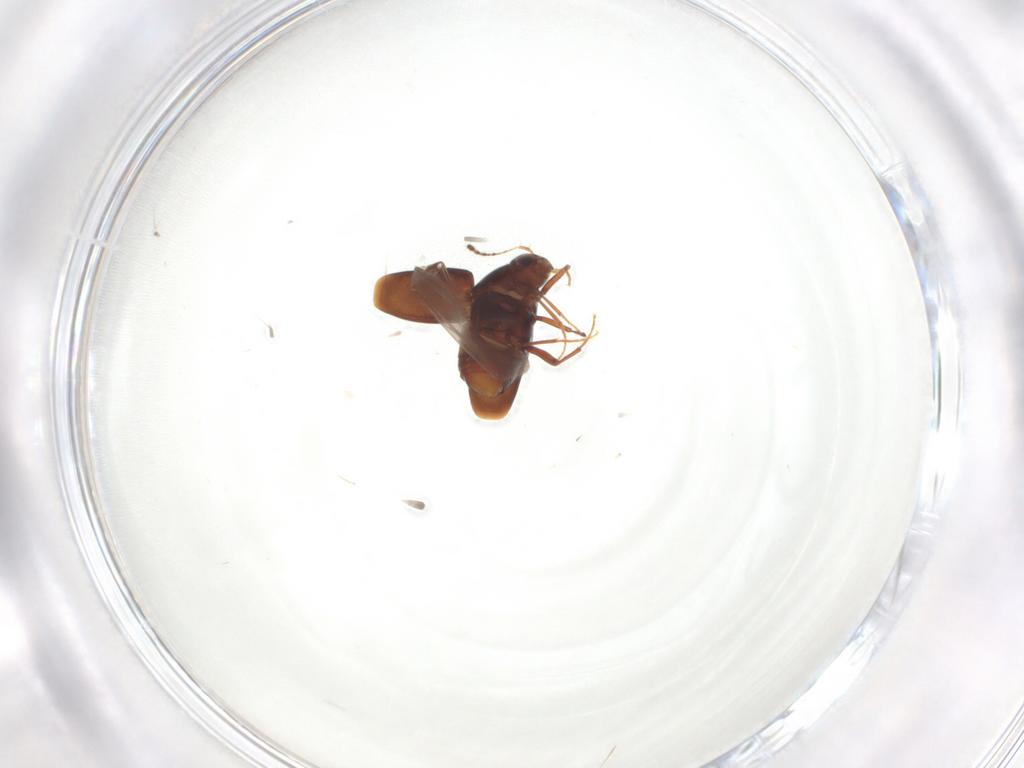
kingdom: Animalia
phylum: Arthropoda
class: Insecta
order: Coleoptera
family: Staphylinidae
